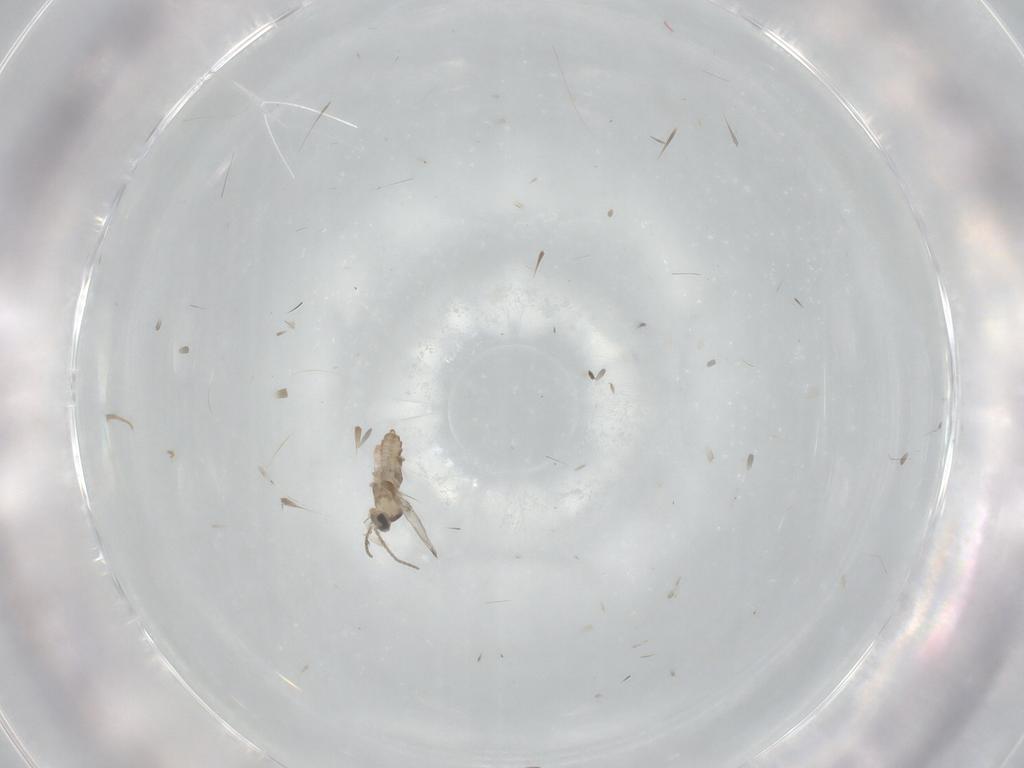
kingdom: Animalia
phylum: Arthropoda
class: Insecta
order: Diptera
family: Cecidomyiidae
